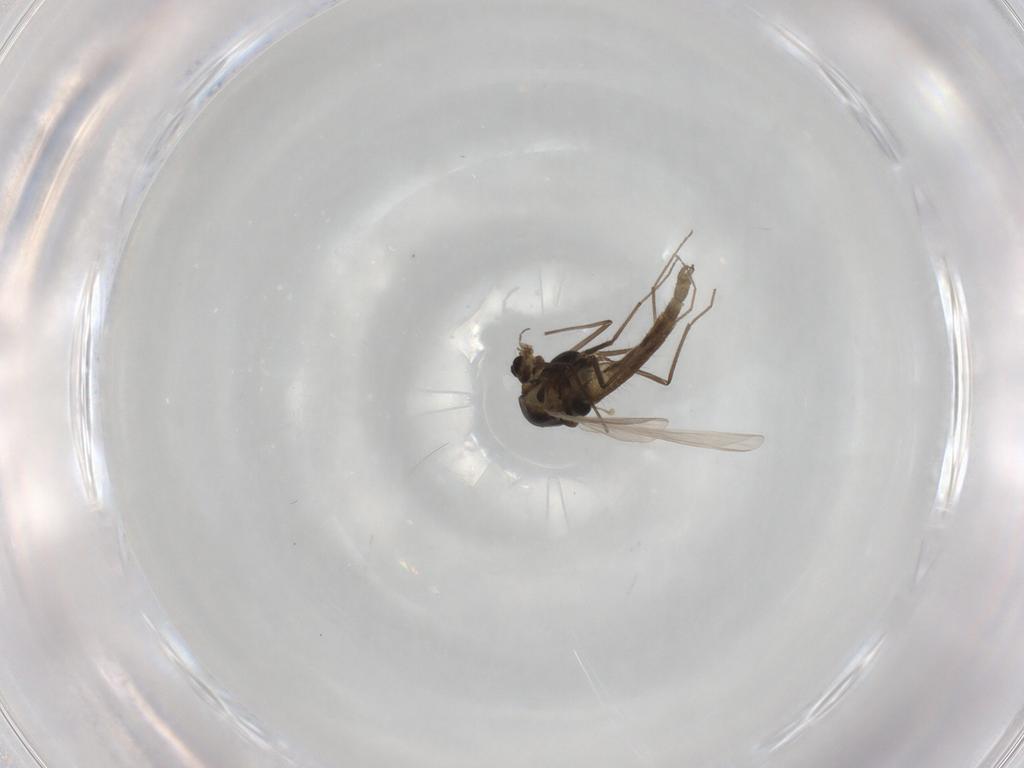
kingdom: Animalia
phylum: Arthropoda
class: Insecta
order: Diptera
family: Chironomidae
